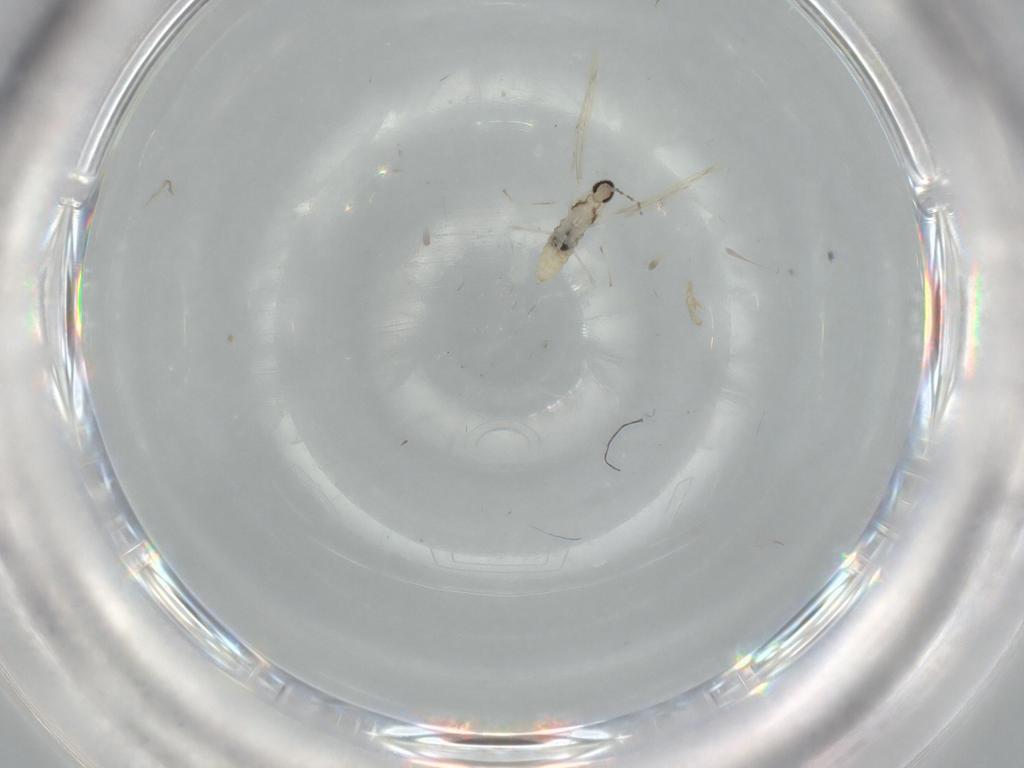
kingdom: Animalia
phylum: Arthropoda
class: Insecta
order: Diptera
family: Cecidomyiidae
